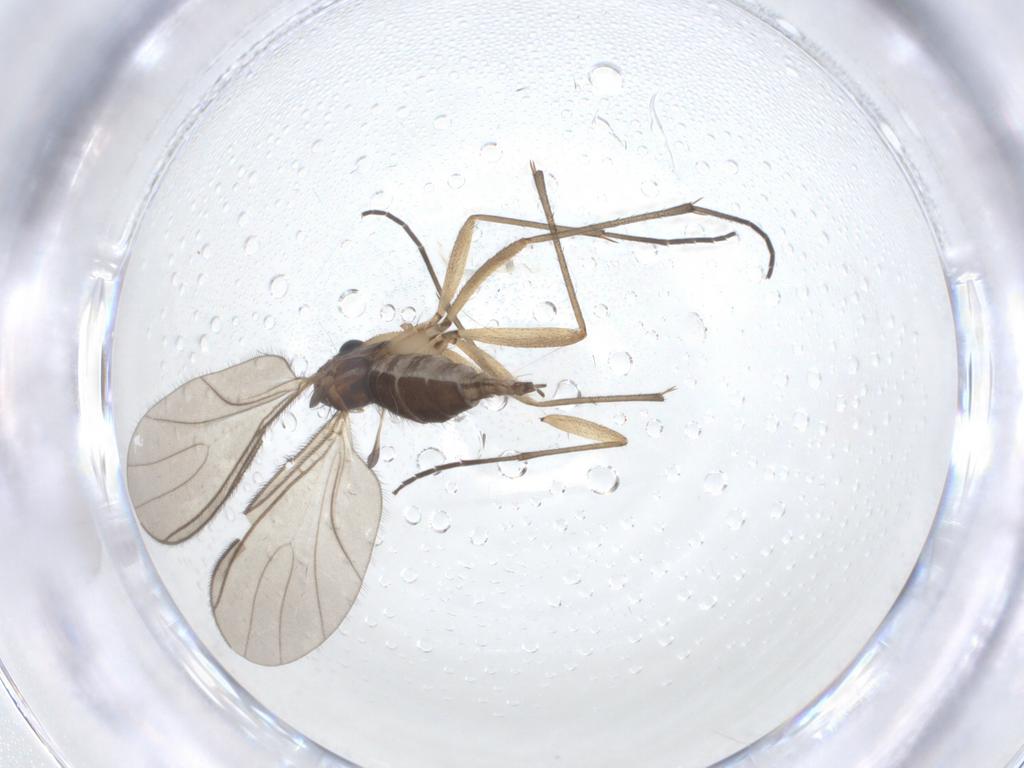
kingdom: Animalia
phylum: Arthropoda
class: Insecta
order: Diptera
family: Sciaridae
